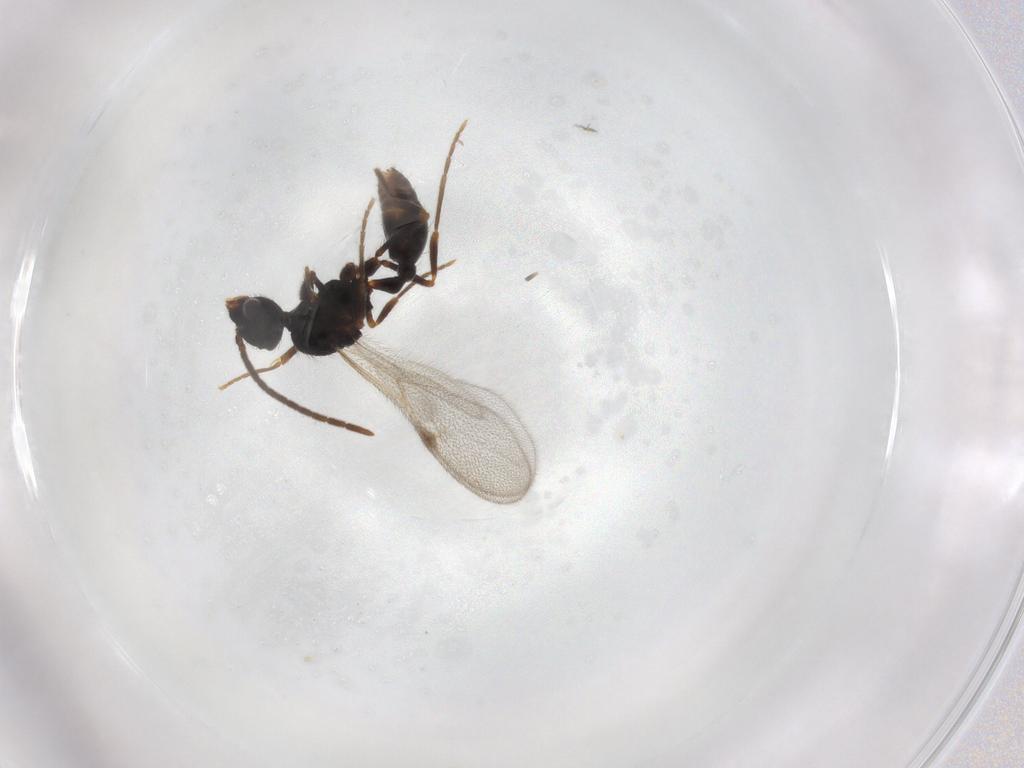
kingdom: Animalia
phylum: Arthropoda
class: Insecta
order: Hymenoptera
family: Formicidae
